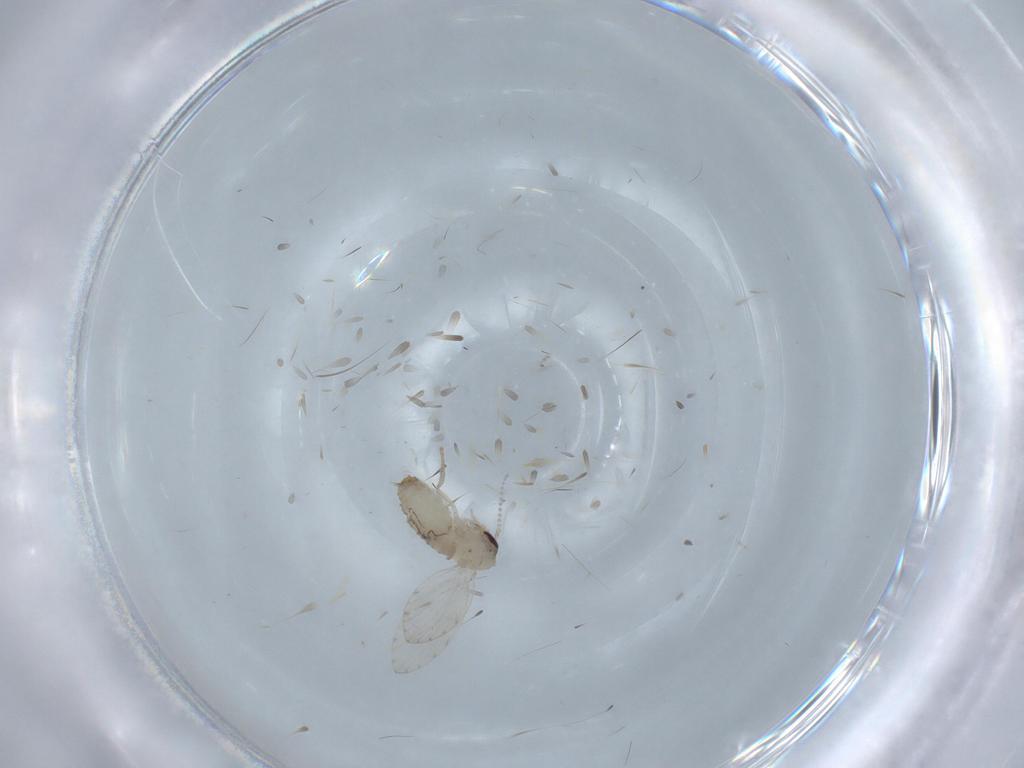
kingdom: Animalia
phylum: Arthropoda
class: Insecta
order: Diptera
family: Psychodidae
